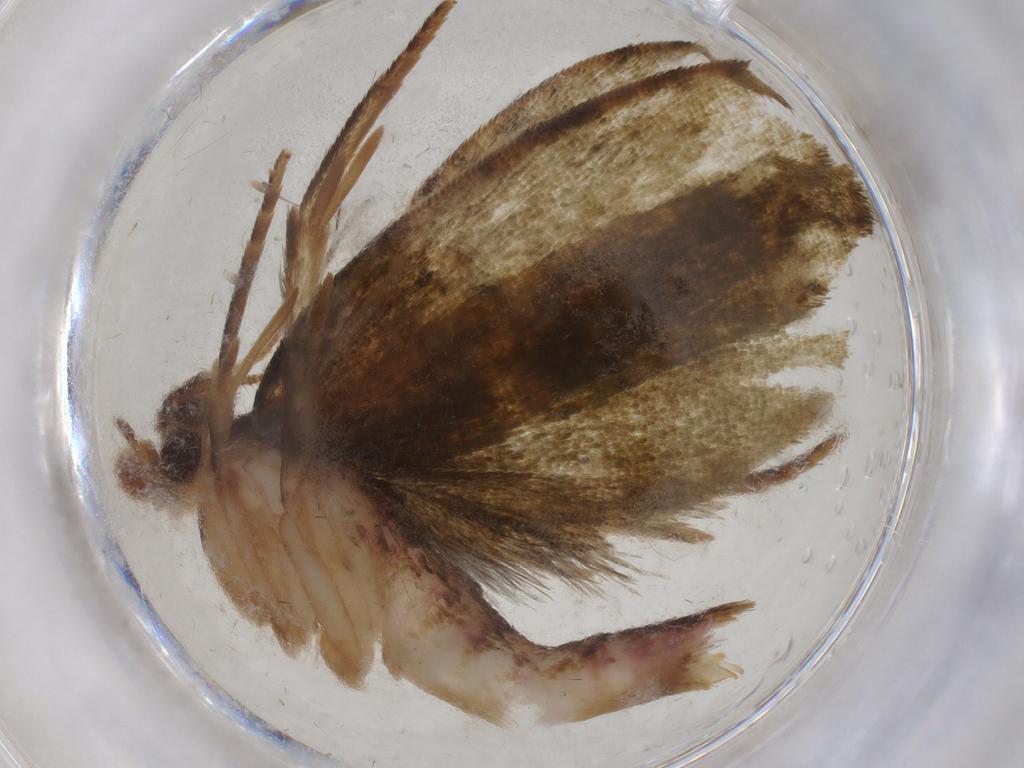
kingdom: Animalia
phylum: Arthropoda
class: Insecta
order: Lepidoptera
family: Geometridae
